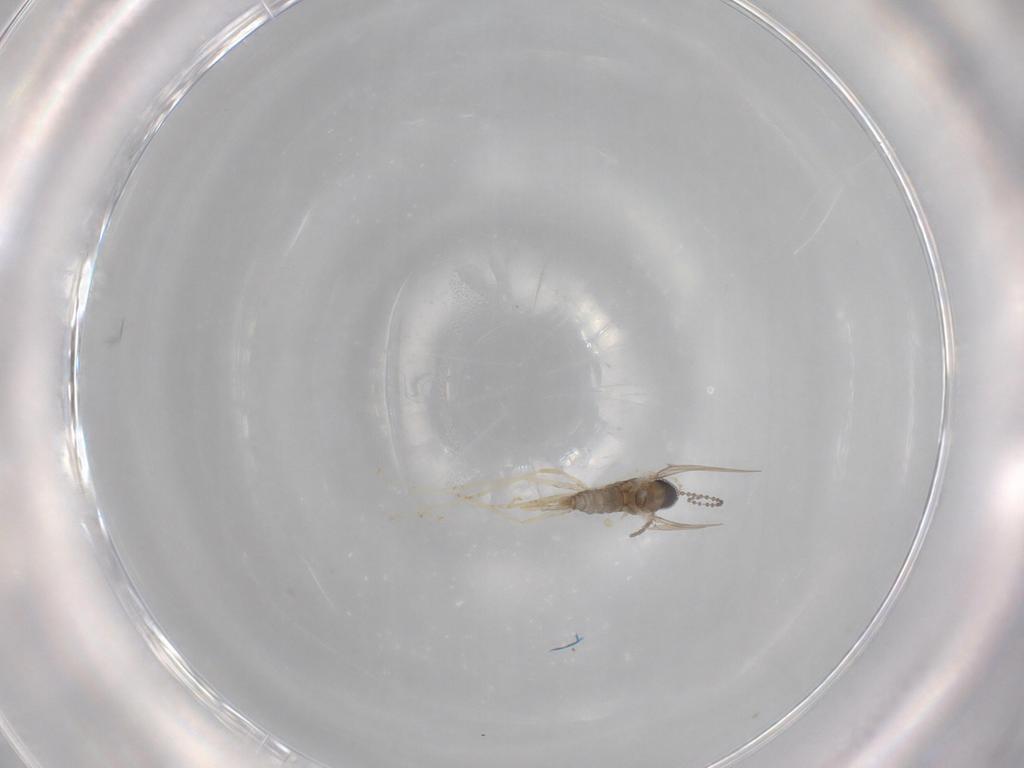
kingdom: Animalia
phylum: Arthropoda
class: Insecta
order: Diptera
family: Cecidomyiidae
